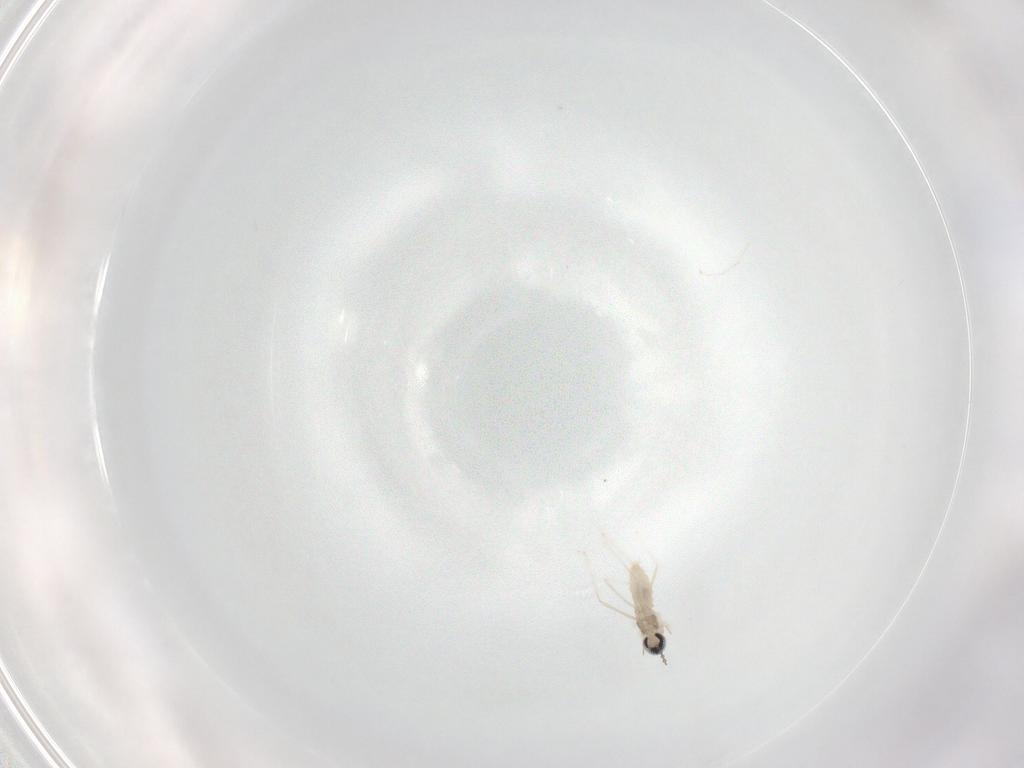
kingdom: Animalia
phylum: Arthropoda
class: Insecta
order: Diptera
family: Cecidomyiidae
